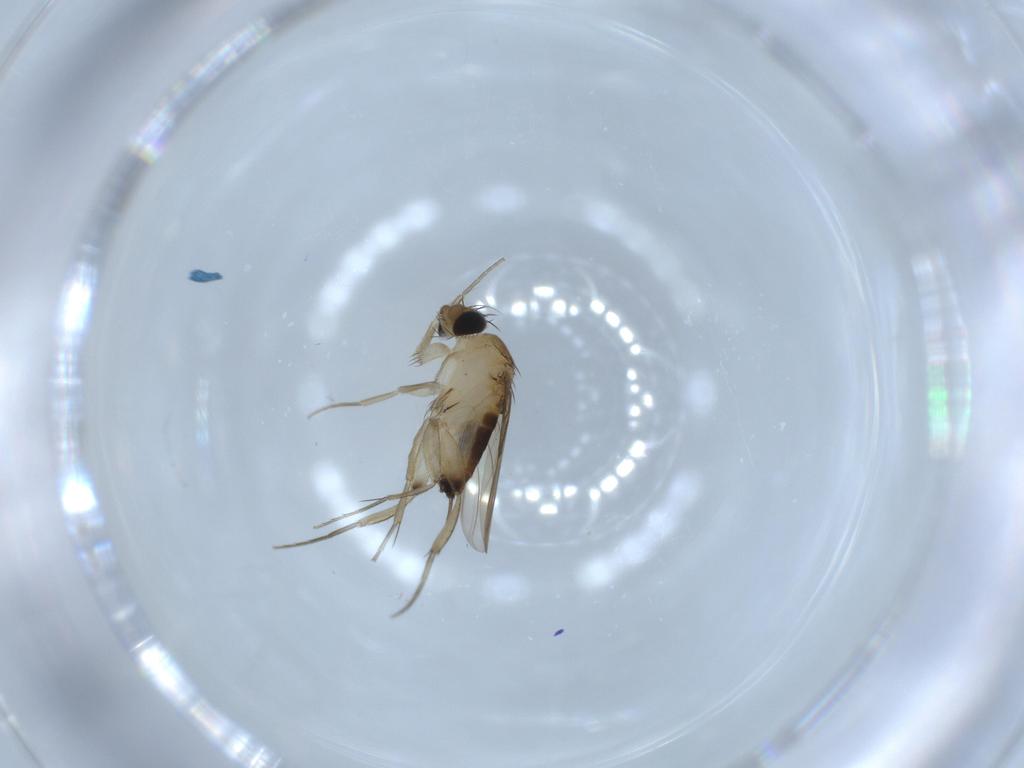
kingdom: Animalia
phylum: Arthropoda
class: Insecta
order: Diptera
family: Phoridae
